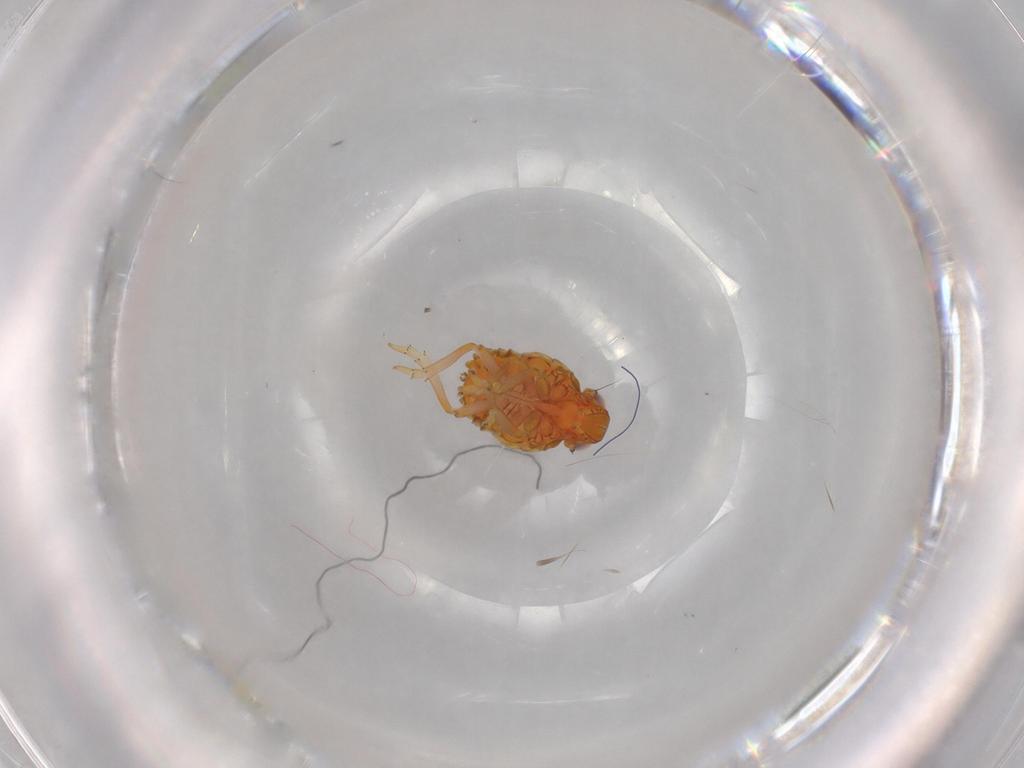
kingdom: Animalia
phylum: Arthropoda
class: Insecta
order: Hemiptera
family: Issidae
